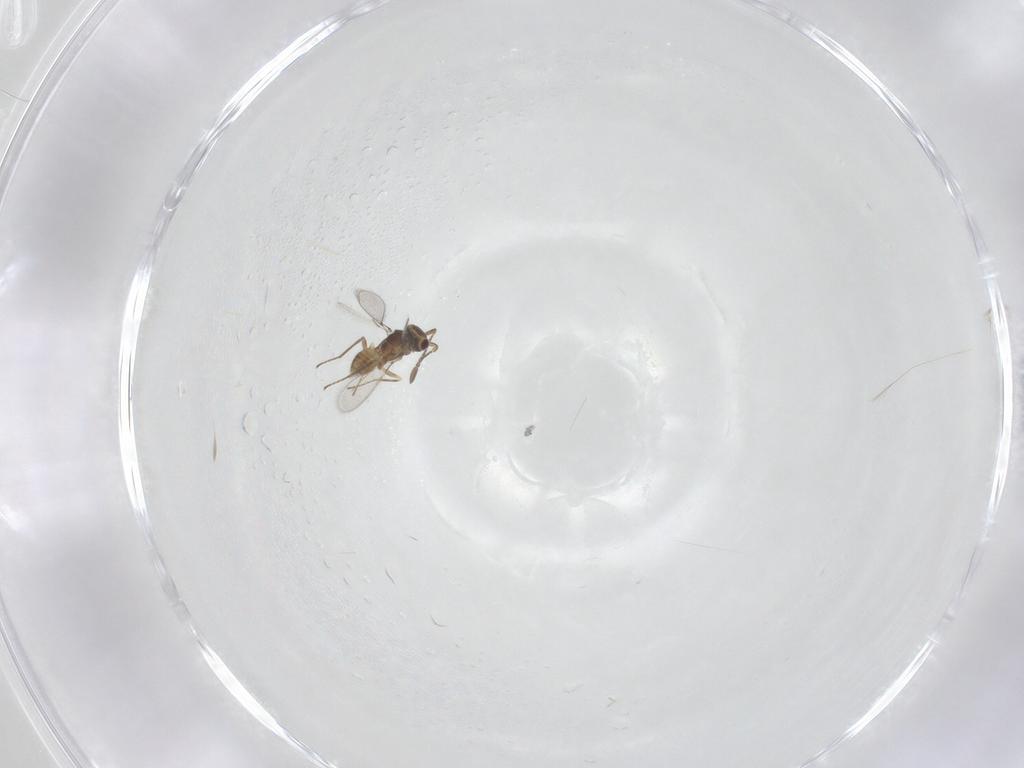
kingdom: Animalia
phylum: Arthropoda
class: Insecta
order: Hymenoptera
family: Mymaridae
